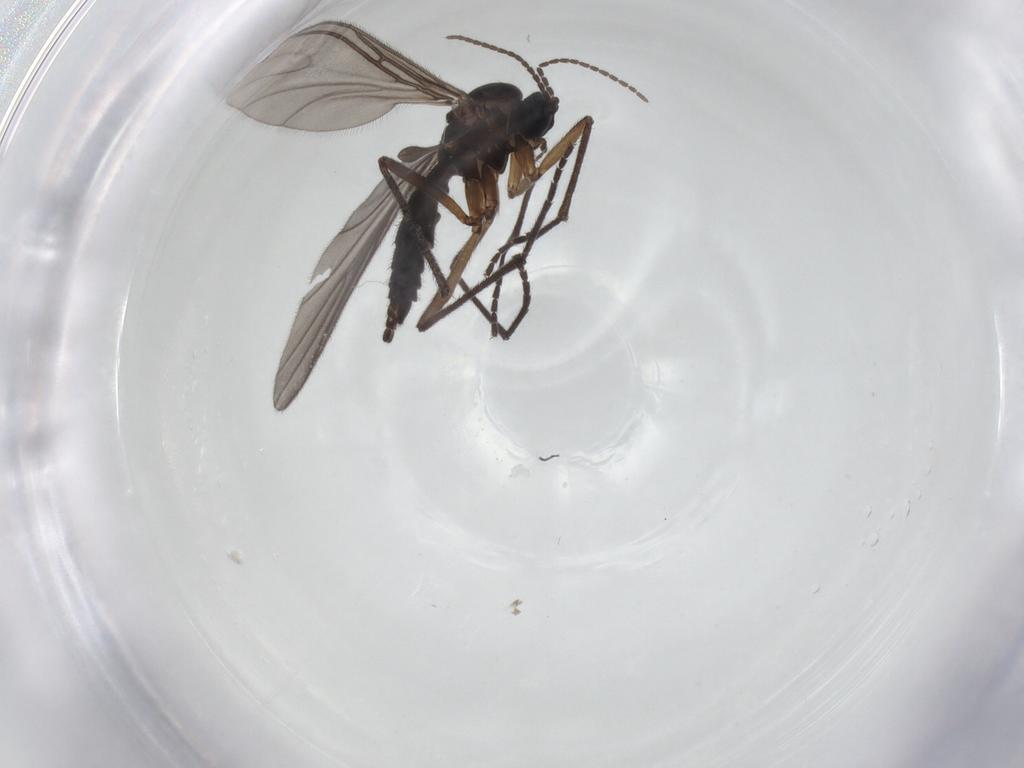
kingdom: Animalia
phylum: Arthropoda
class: Insecta
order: Diptera
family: Sciaridae
